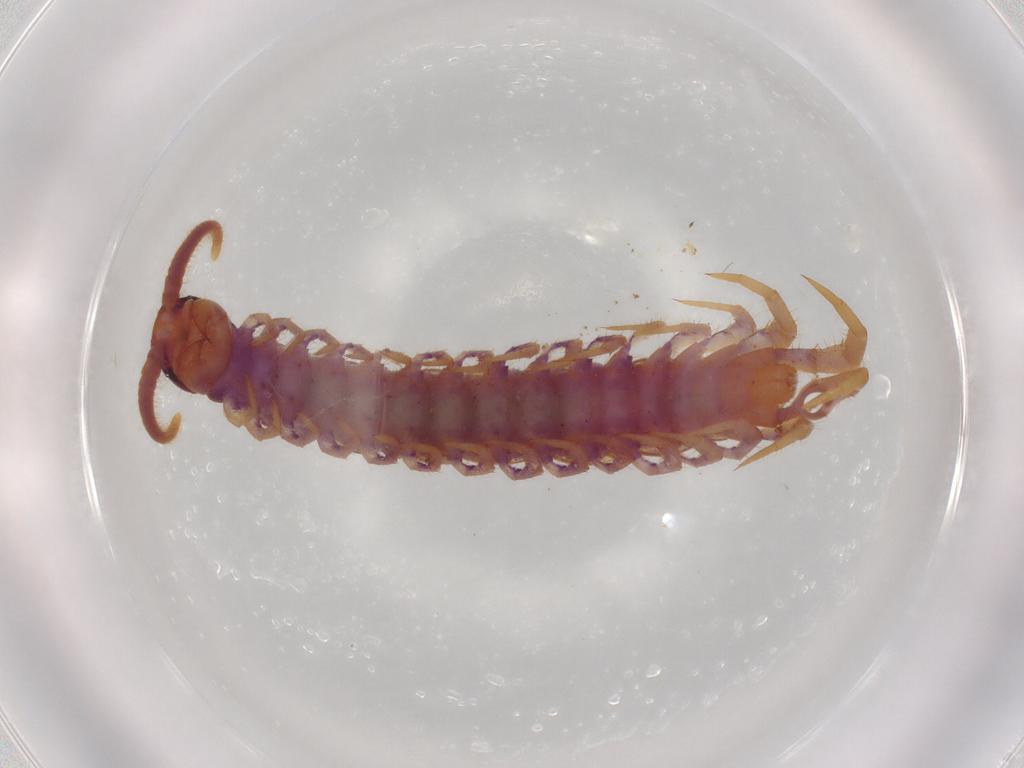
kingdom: Animalia
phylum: Arthropoda
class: Chilopoda
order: Lithobiomorpha
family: Lithobiidae
